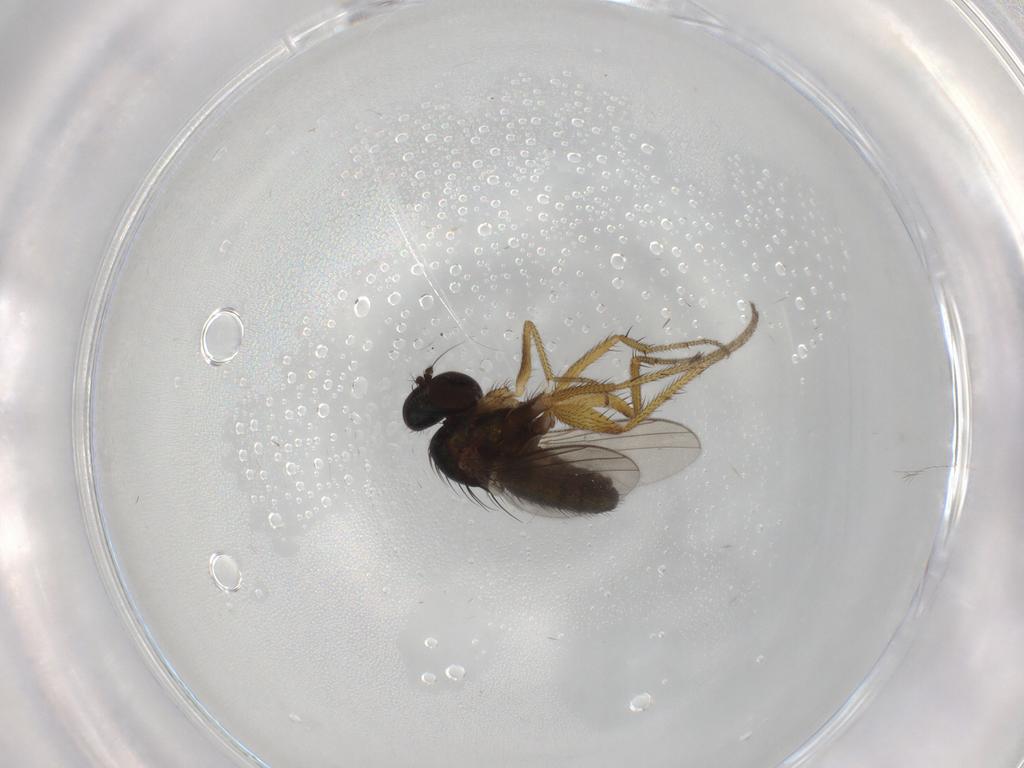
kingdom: Animalia
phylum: Arthropoda
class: Insecta
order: Diptera
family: Dolichopodidae
